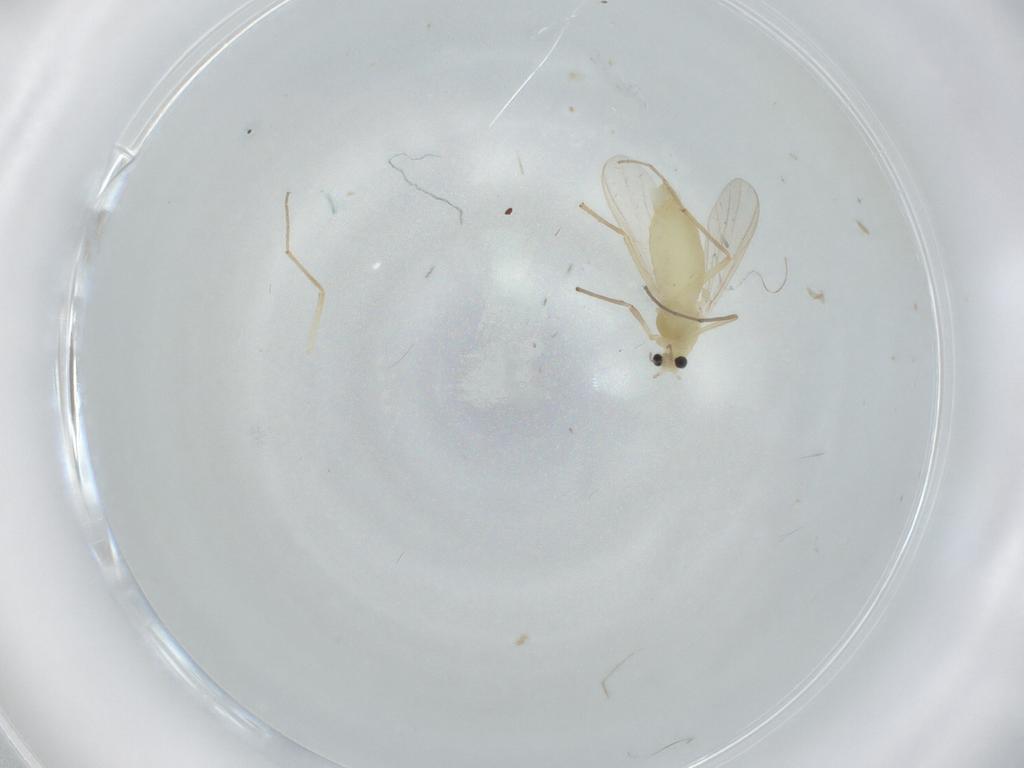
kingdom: Animalia
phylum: Arthropoda
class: Insecta
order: Diptera
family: Chironomidae
